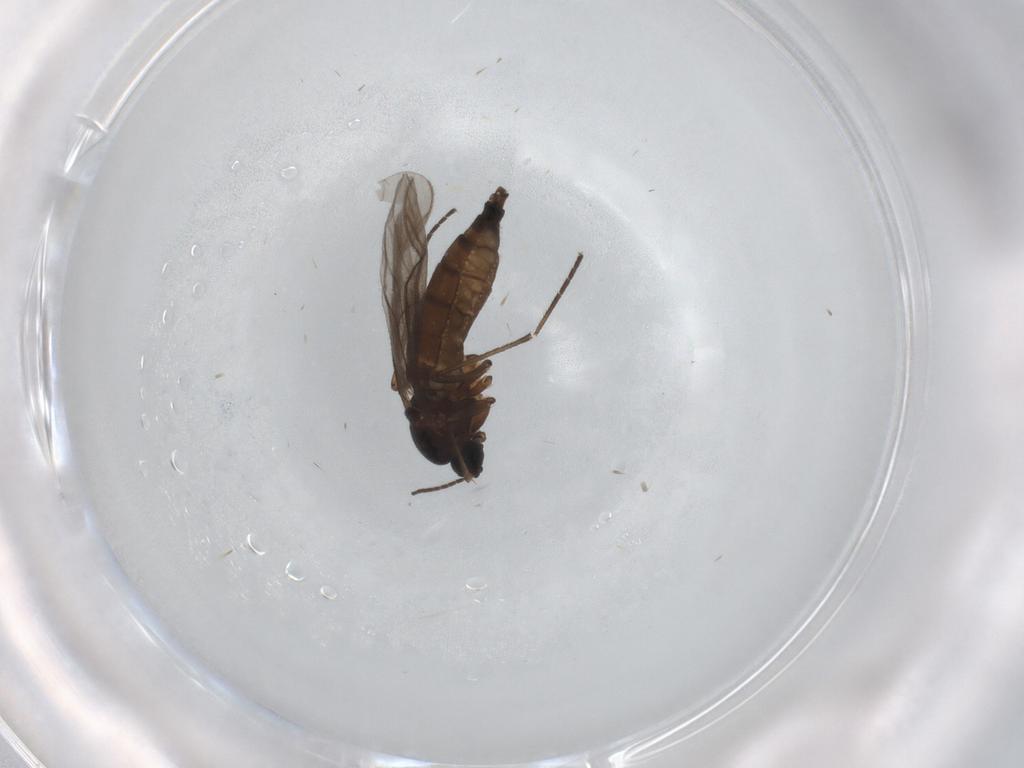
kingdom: Animalia
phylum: Arthropoda
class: Insecta
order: Diptera
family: Sciaridae
